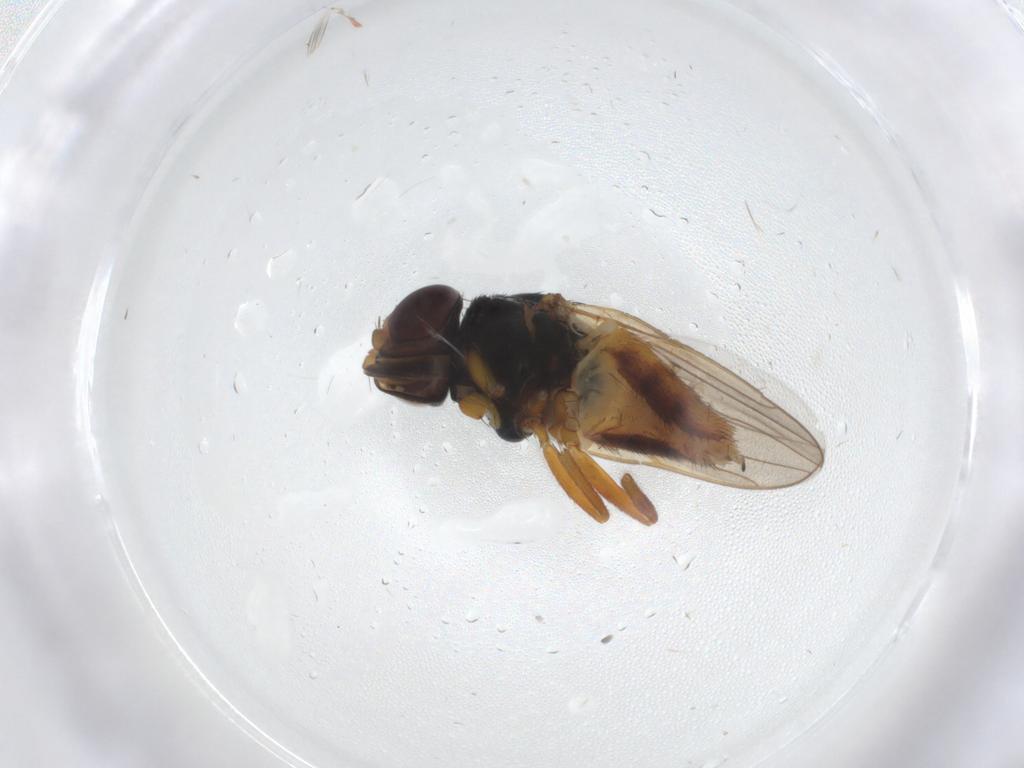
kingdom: Animalia
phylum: Arthropoda
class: Insecta
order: Diptera
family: Chloropidae
